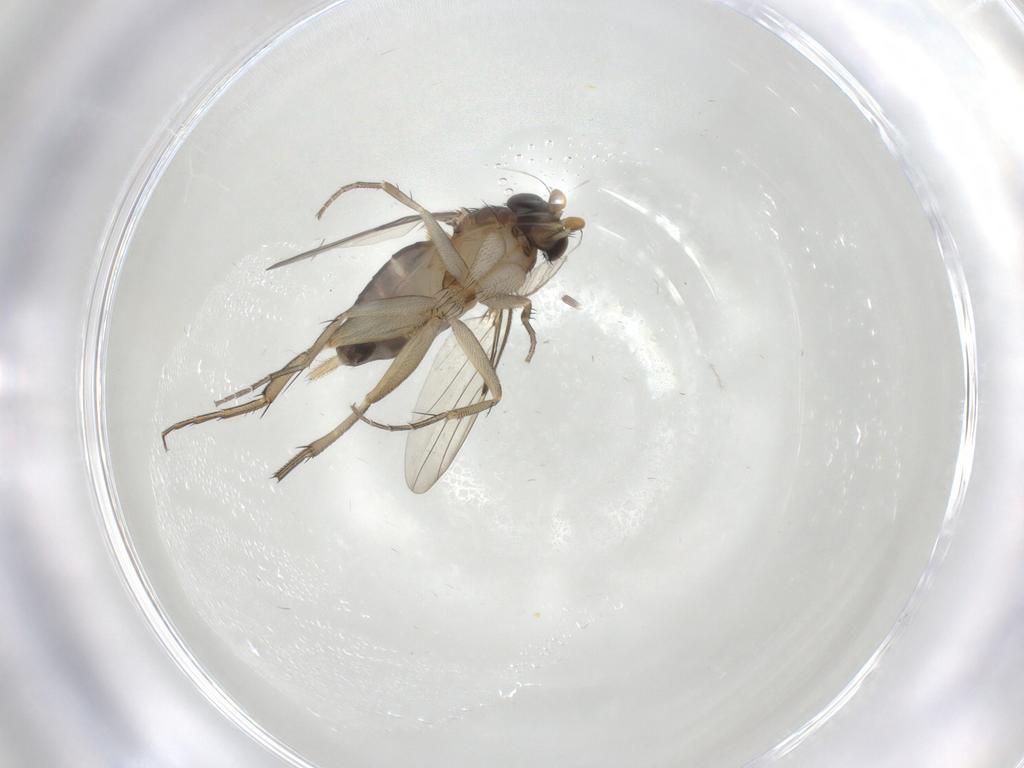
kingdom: Animalia
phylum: Arthropoda
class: Insecta
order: Diptera
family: Phoridae
